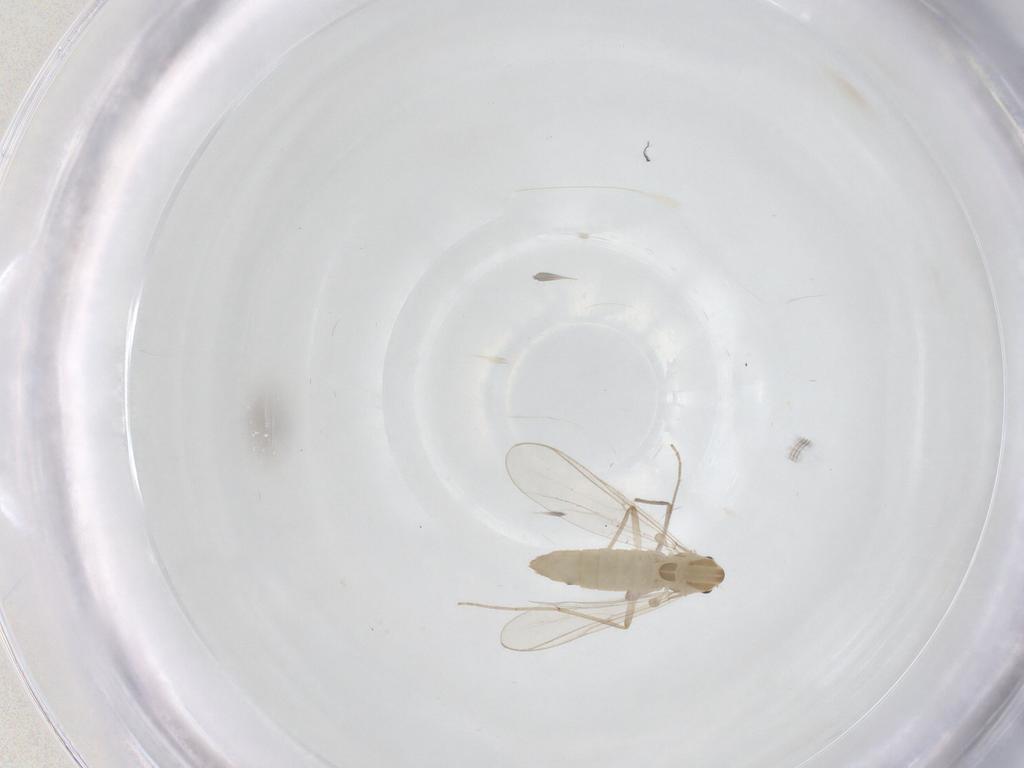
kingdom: Animalia
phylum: Arthropoda
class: Insecta
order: Diptera
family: Chironomidae
